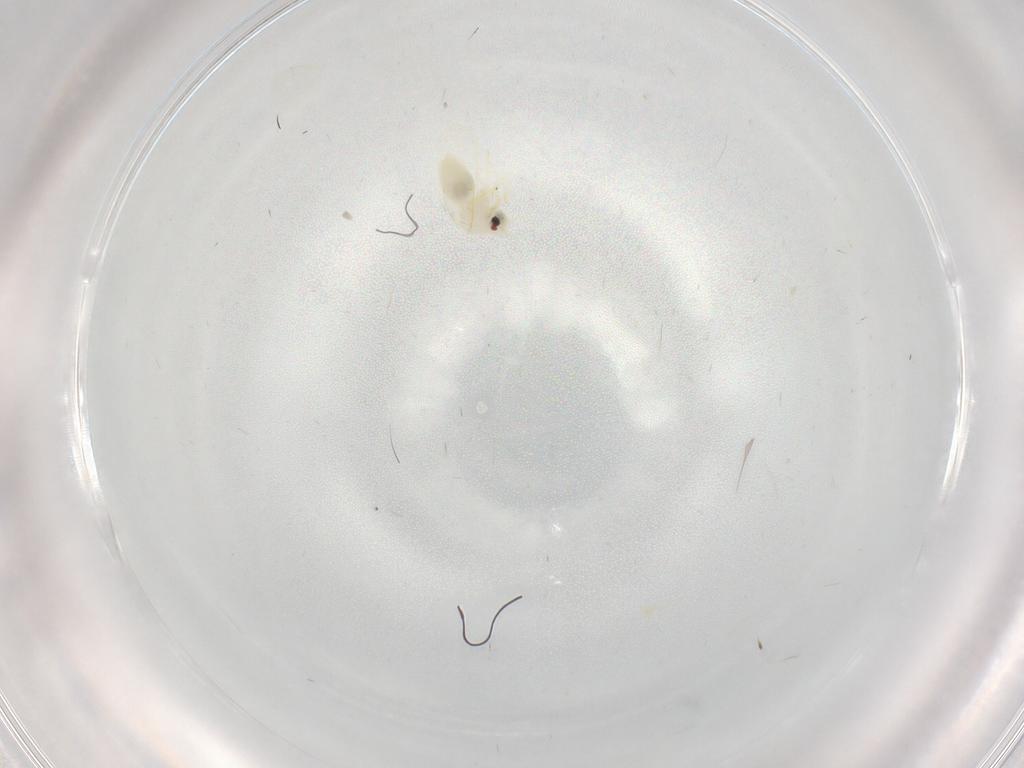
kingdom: Animalia
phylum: Arthropoda
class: Insecta
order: Hemiptera
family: Aleyrodidae
